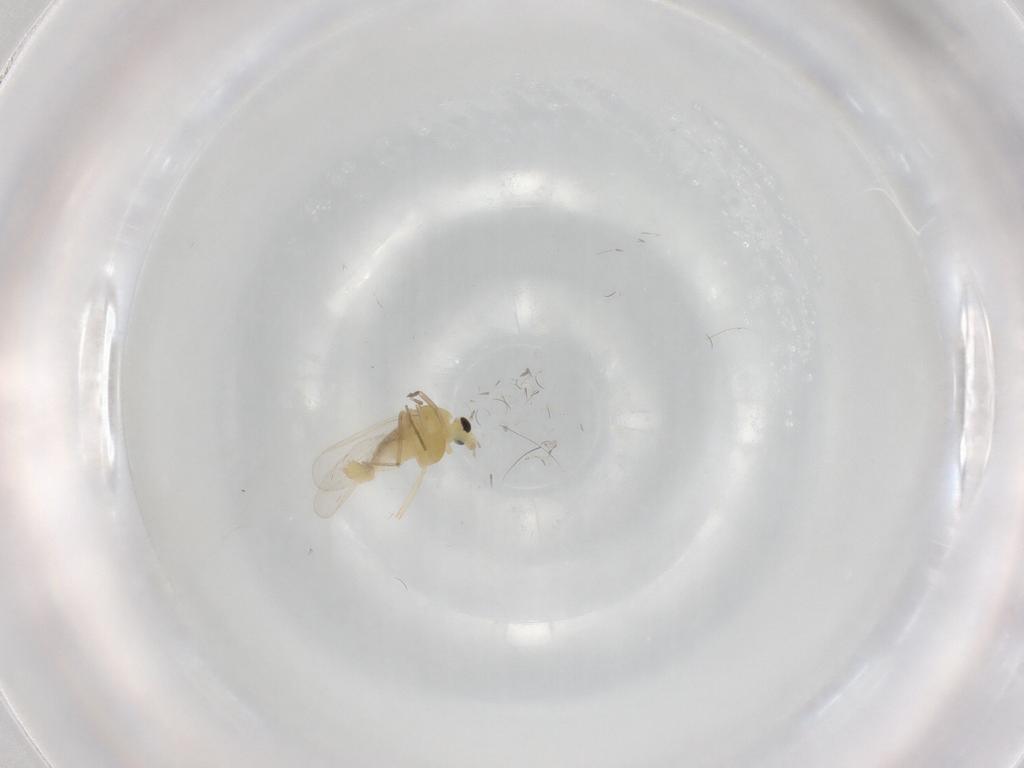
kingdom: Animalia
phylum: Arthropoda
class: Insecta
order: Diptera
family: Chironomidae
